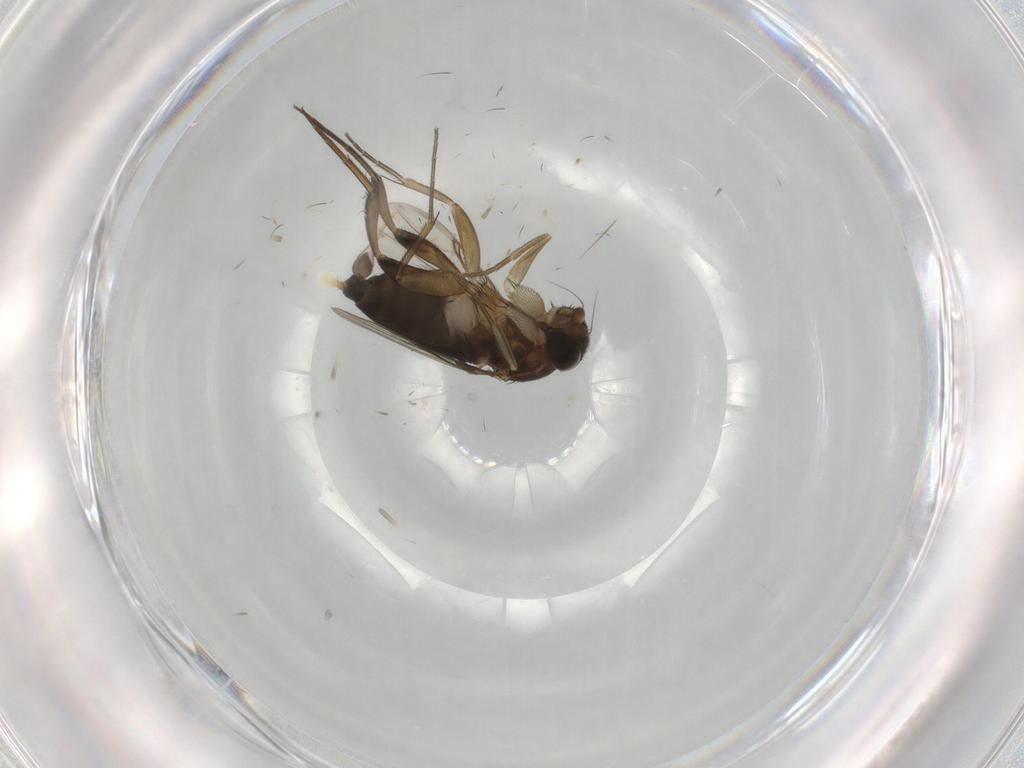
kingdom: Animalia
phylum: Arthropoda
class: Insecta
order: Diptera
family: Phoridae
